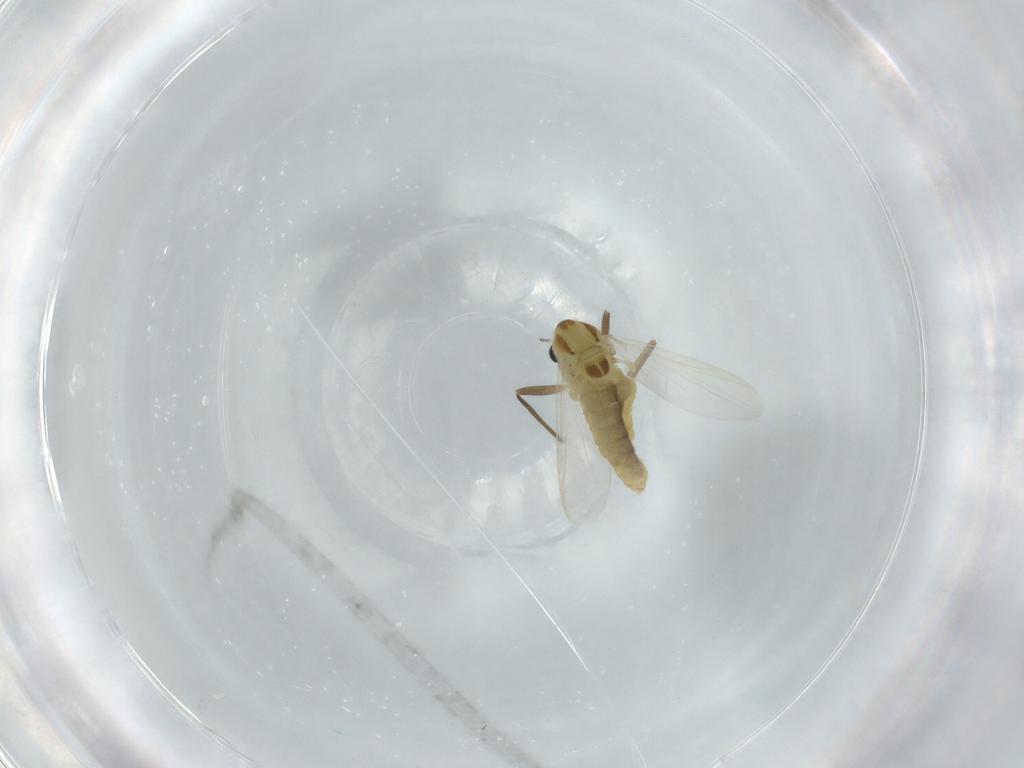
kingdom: Animalia
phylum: Arthropoda
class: Insecta
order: Diptera
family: Chironomidae
